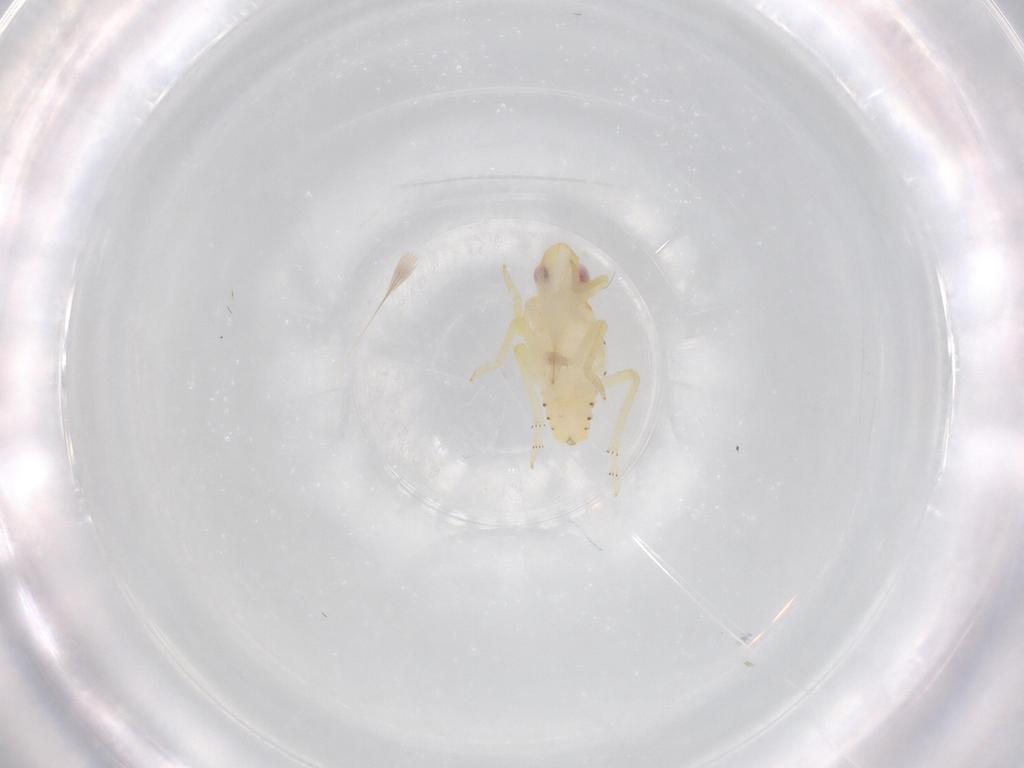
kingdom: Animalia
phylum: Arthropoda
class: Insecta
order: Hemiptera
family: Tropiduchidae
